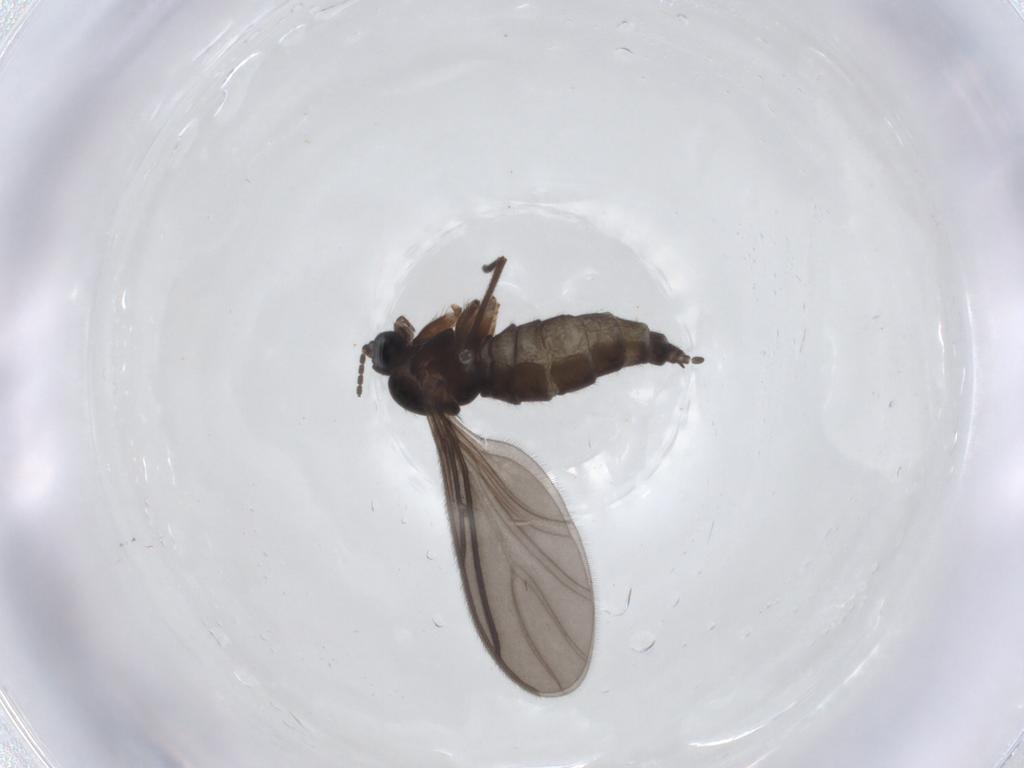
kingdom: Animalia
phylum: Arthropoda
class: Insecta
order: Diptera
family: Sciaridae
